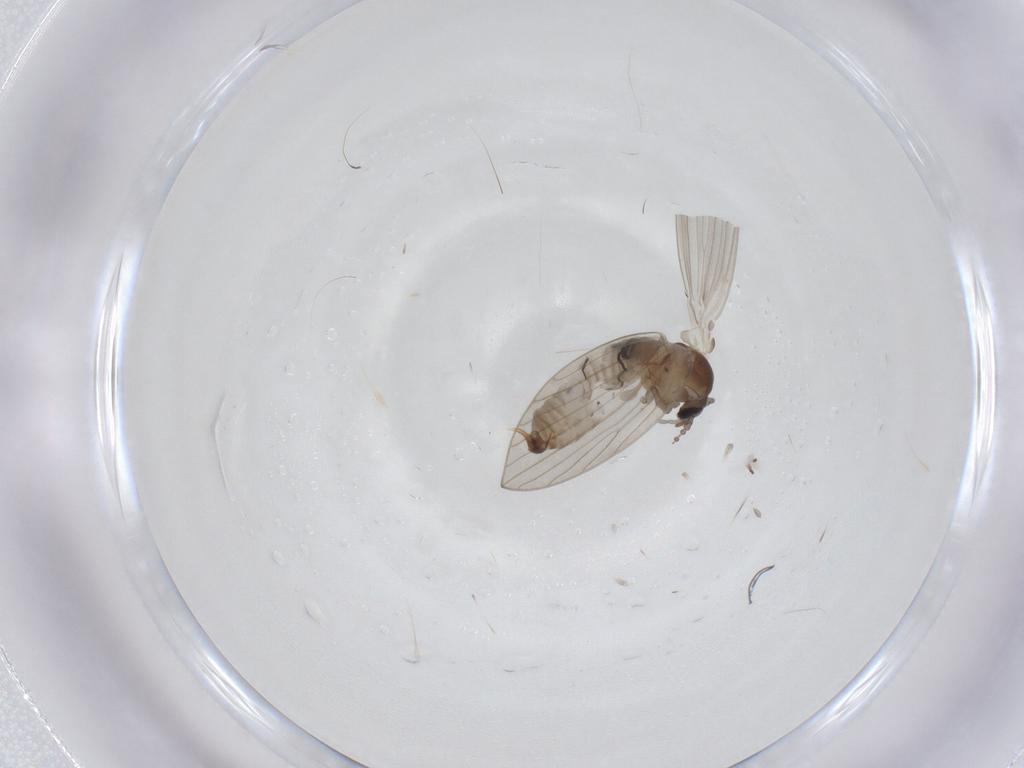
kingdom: Animalia
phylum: Arthropoda
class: Insecta
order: Diptera
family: Psychodidae
